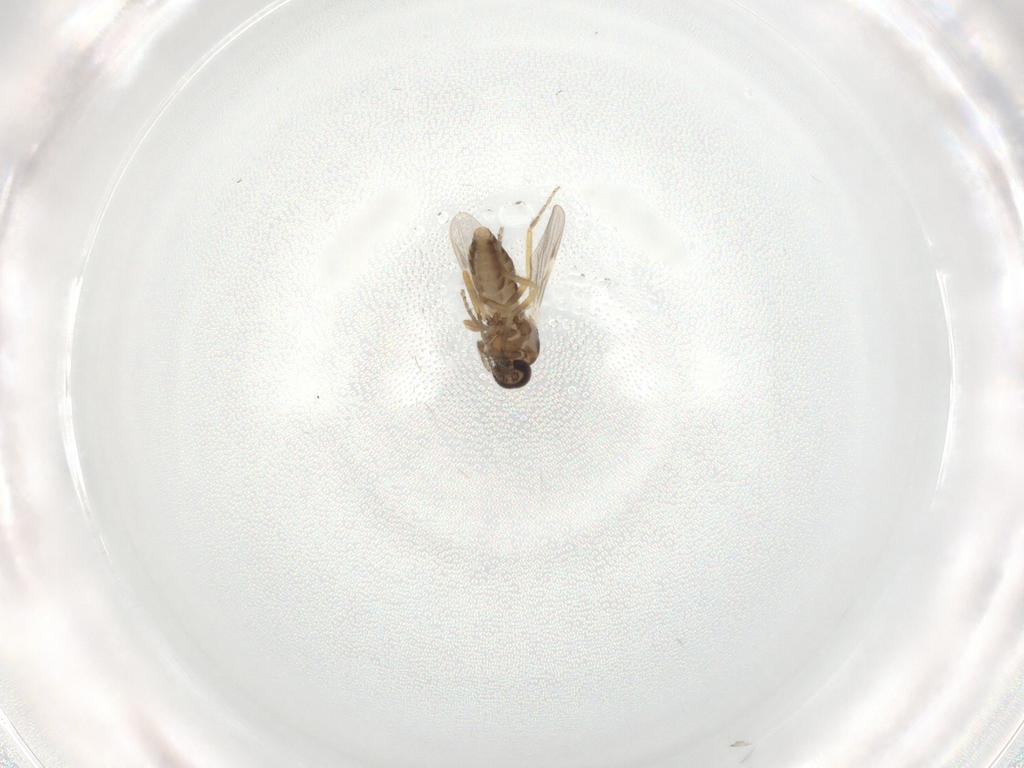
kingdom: Animalia
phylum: Arthropoda
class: Insecta
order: Diptera
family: Ceratopogonidae
